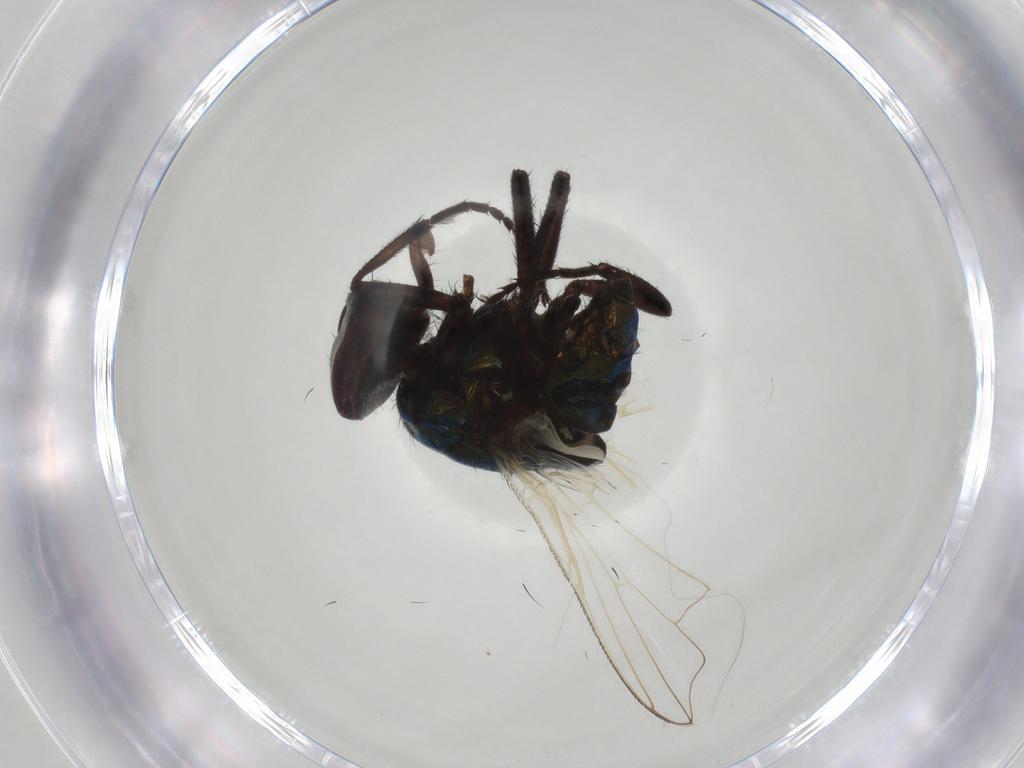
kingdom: Animalia
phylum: Arthropoda
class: Insecta
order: Diptera
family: Muscidae
